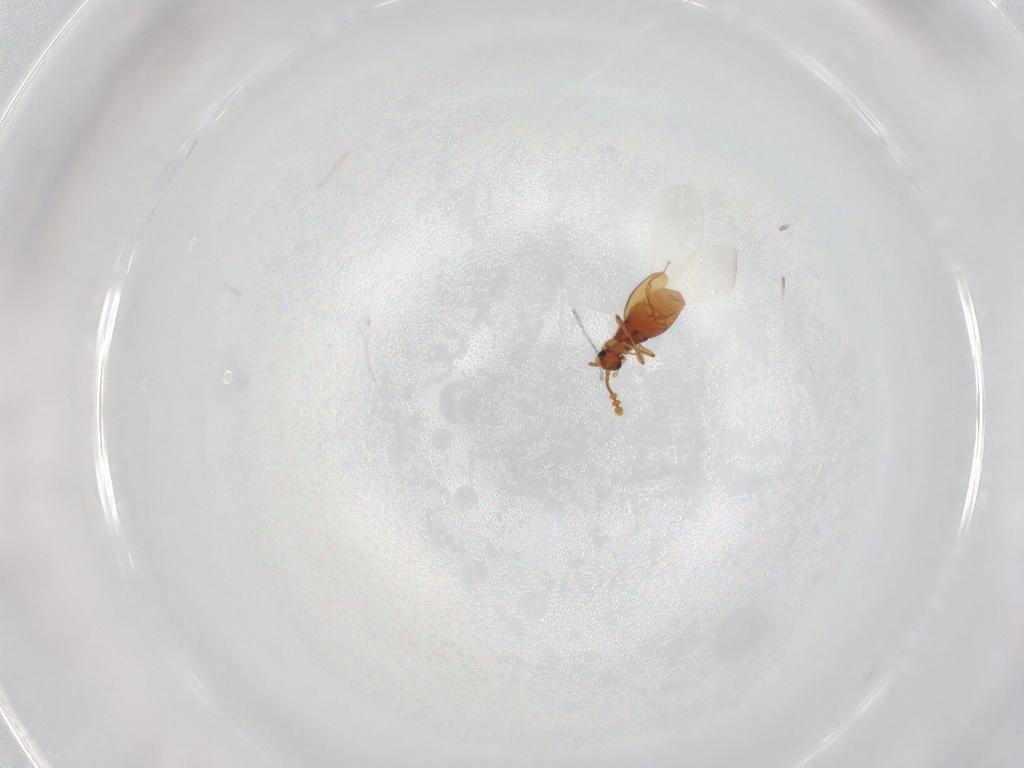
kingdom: Animalia
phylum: Arthropoda
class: Insecta
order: Coleoptera
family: Staphylinidae
